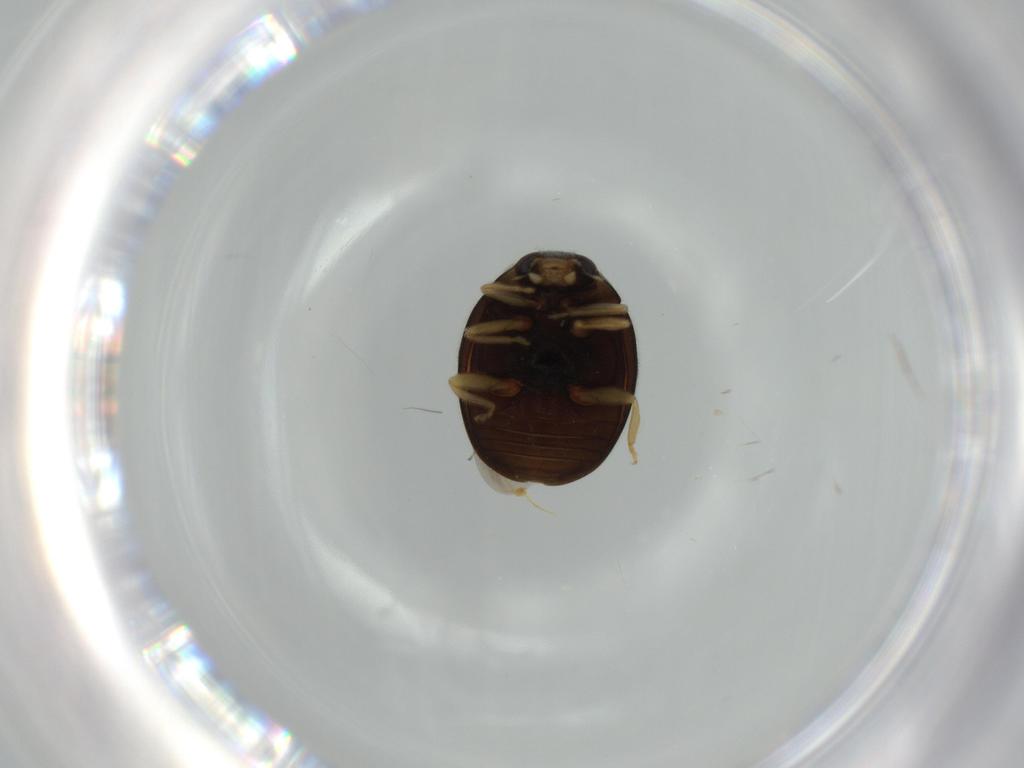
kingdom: Animalia
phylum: Arthropoda
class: Insecta
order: Coleoptera
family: Coccinellidae
